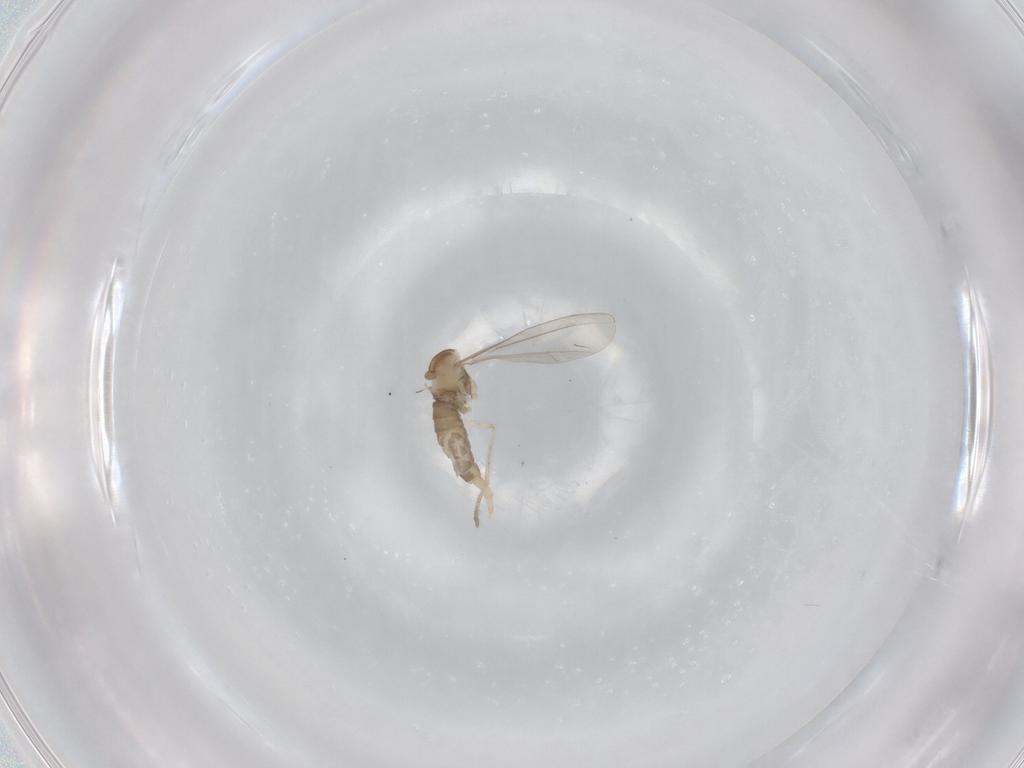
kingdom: Animalia
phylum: Arthropoda
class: Insecta
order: Diptera
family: Cecidomyiidae
